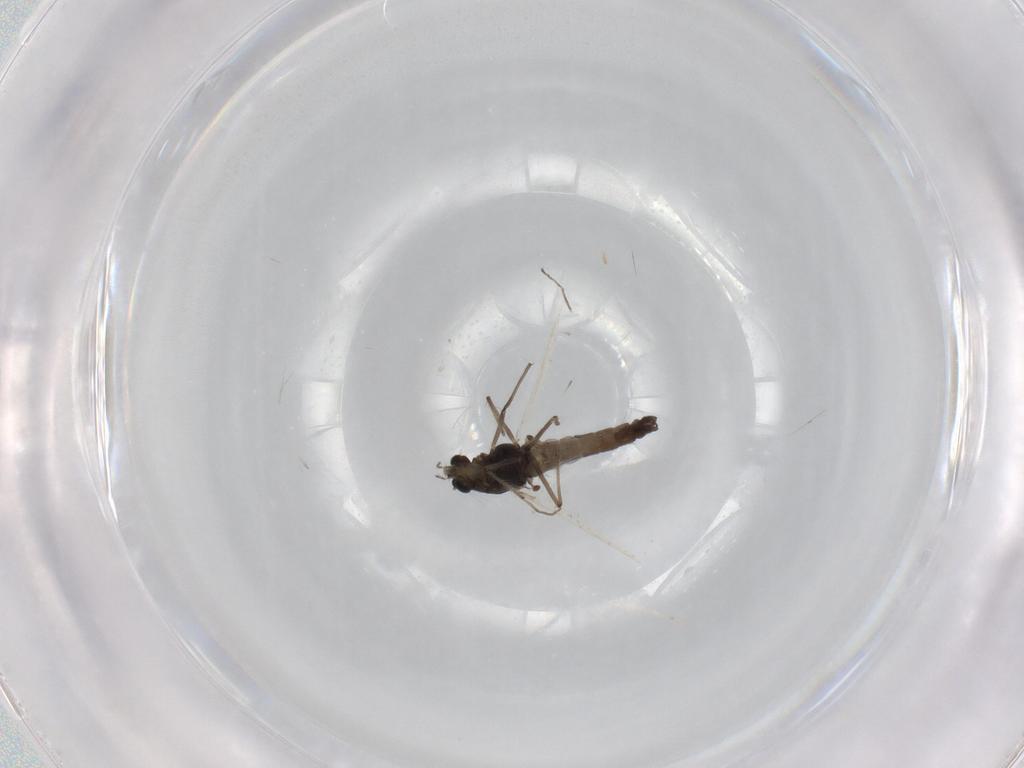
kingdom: Animalia
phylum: Arthropoda
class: Insecta
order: Diptera
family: Chironomidae
